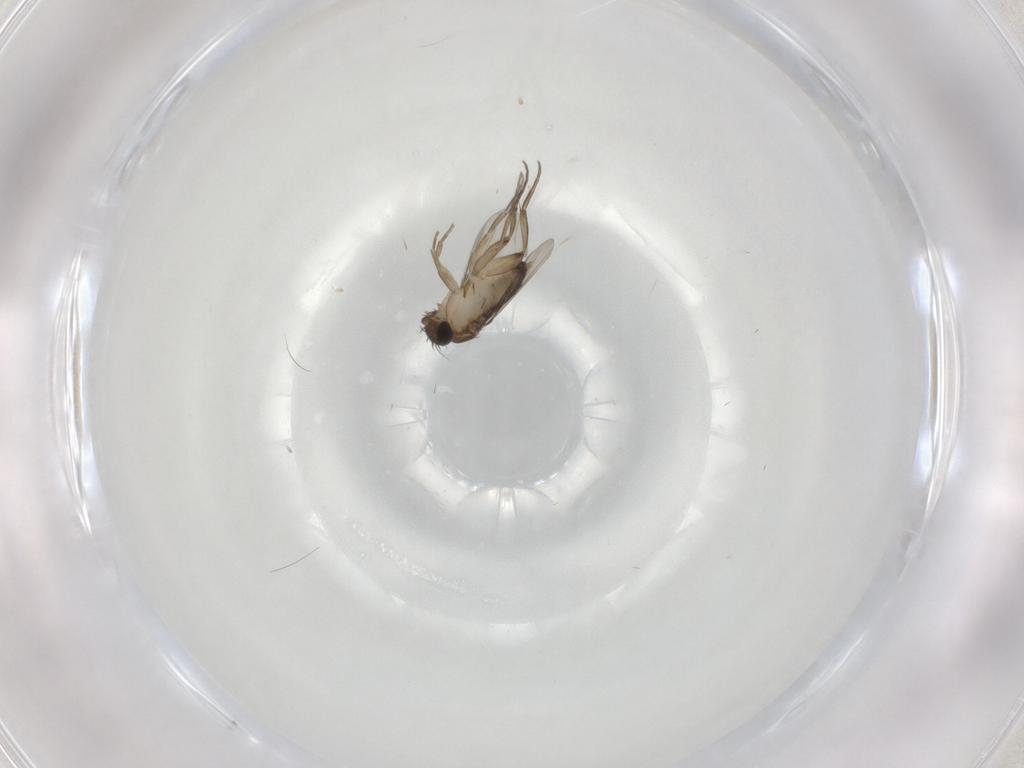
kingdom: Animalia
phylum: Arthropoda
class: Insecta
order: Diptera
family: Phoridae
